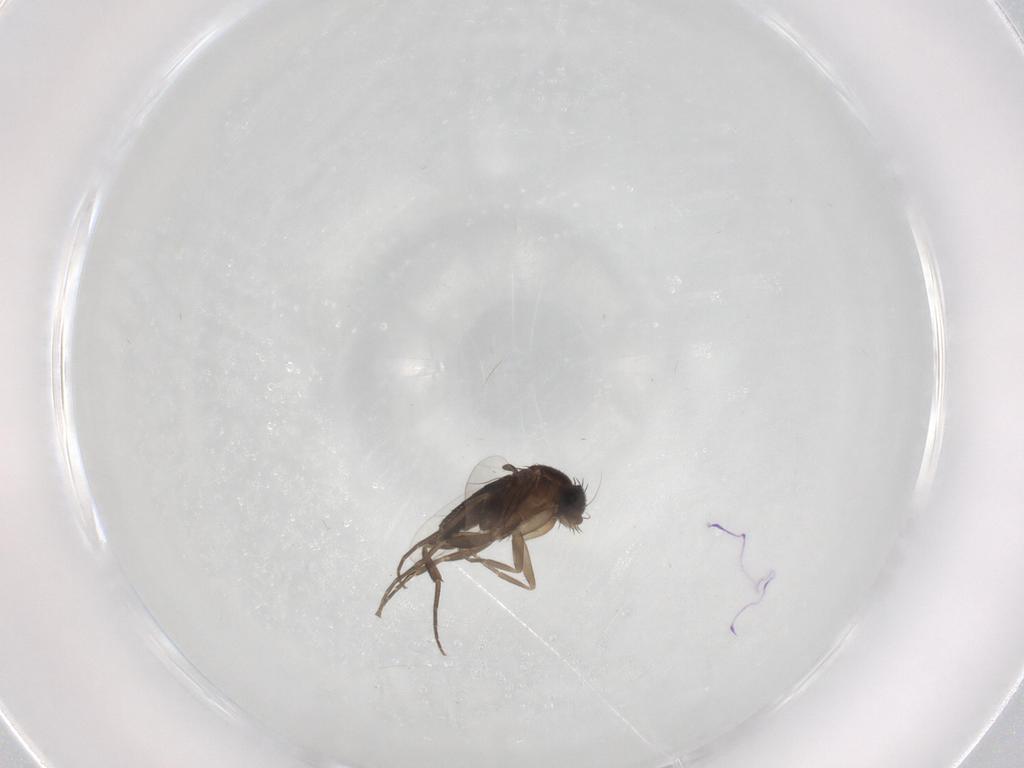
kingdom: Animalia
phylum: Arthropoda
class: Insecta
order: Diptera
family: Phoridae
